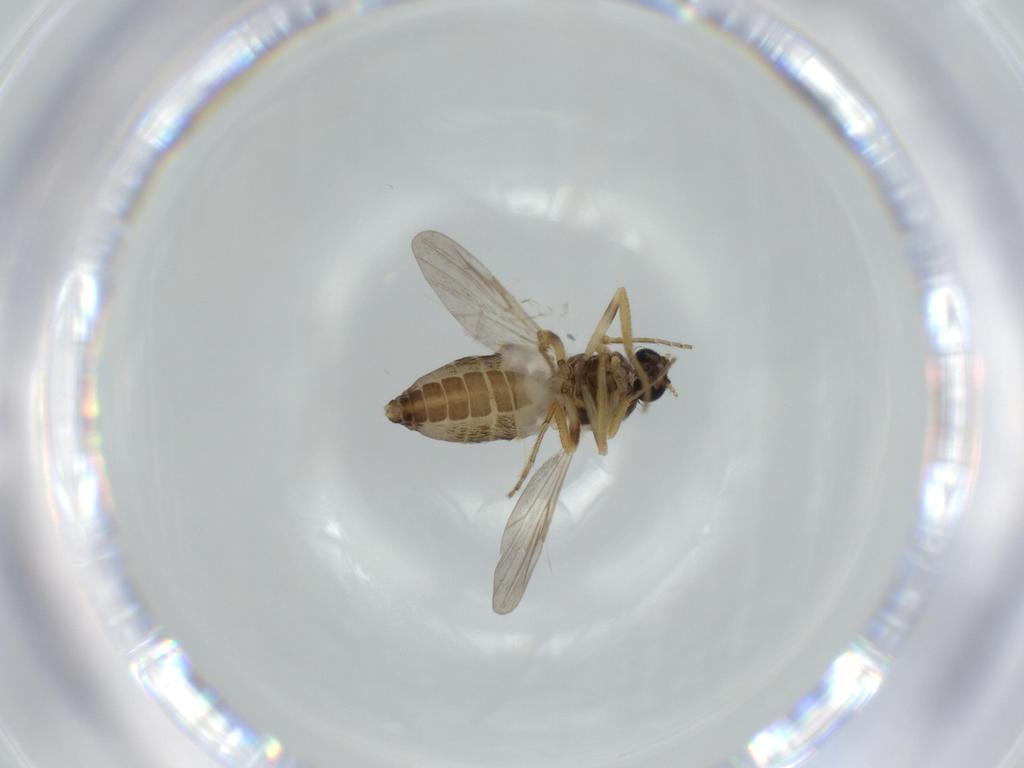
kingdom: Animalia
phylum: Arthropoda
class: Insecta
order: Diptera
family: Ceratopogonidae
